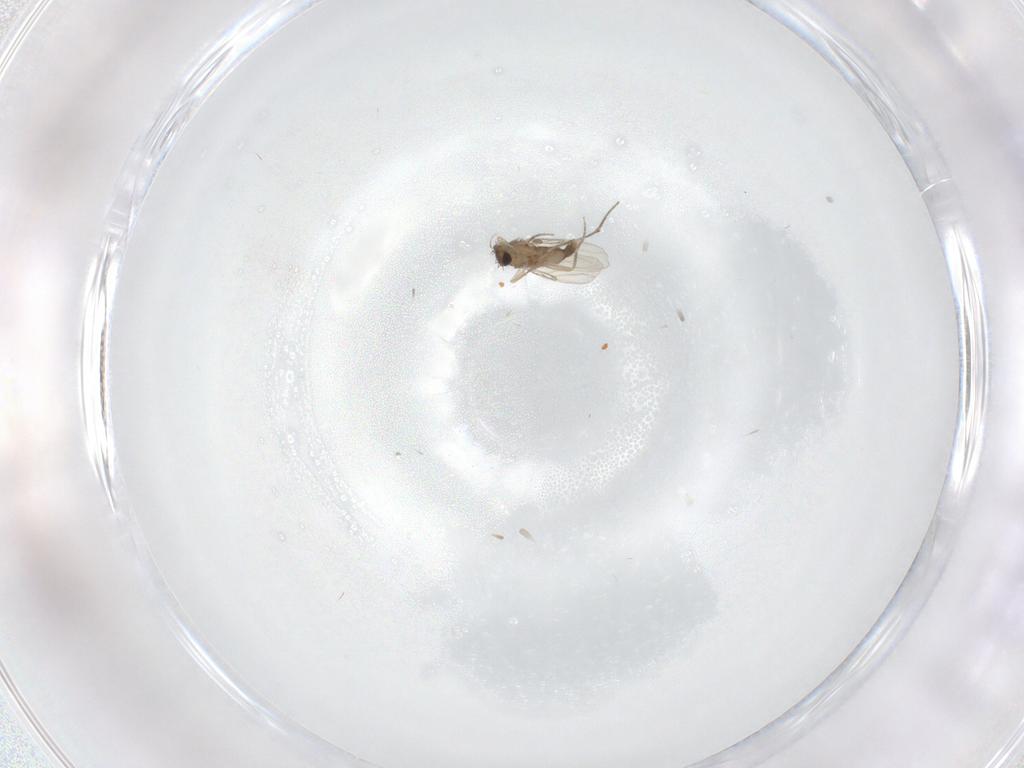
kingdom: Animalia
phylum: Arthropoda
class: Insecta
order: Diptera
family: Phoridae
